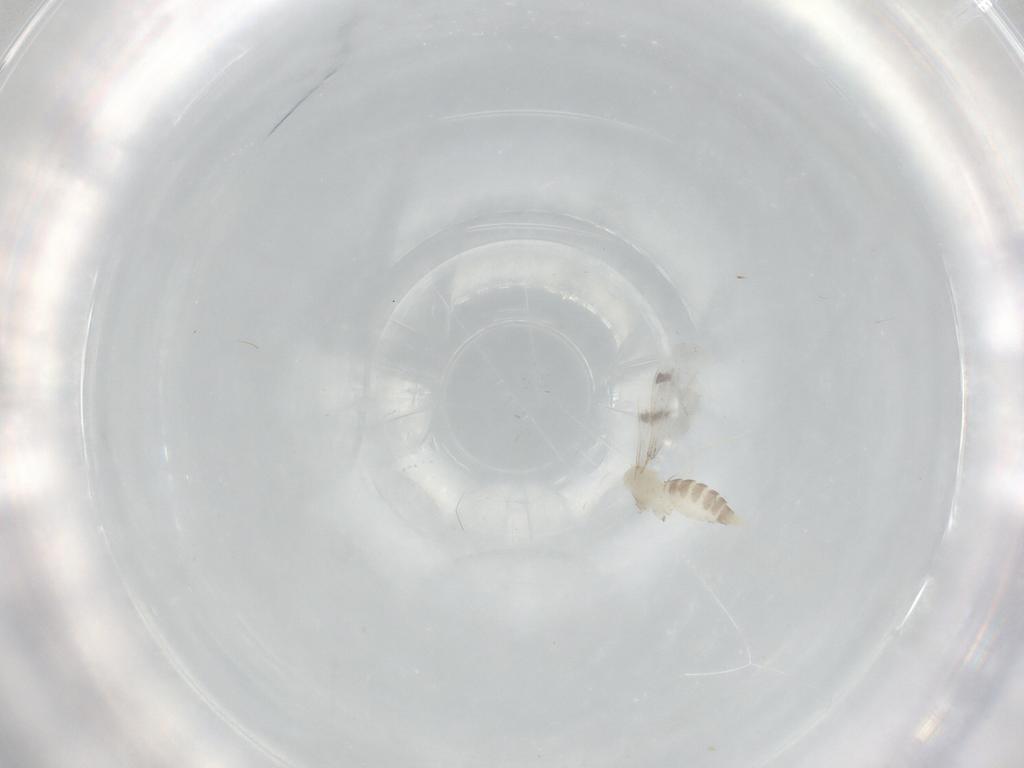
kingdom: Animalia
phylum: Arthropoda
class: Insecta
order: Diptera
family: Cecidomyiidae
